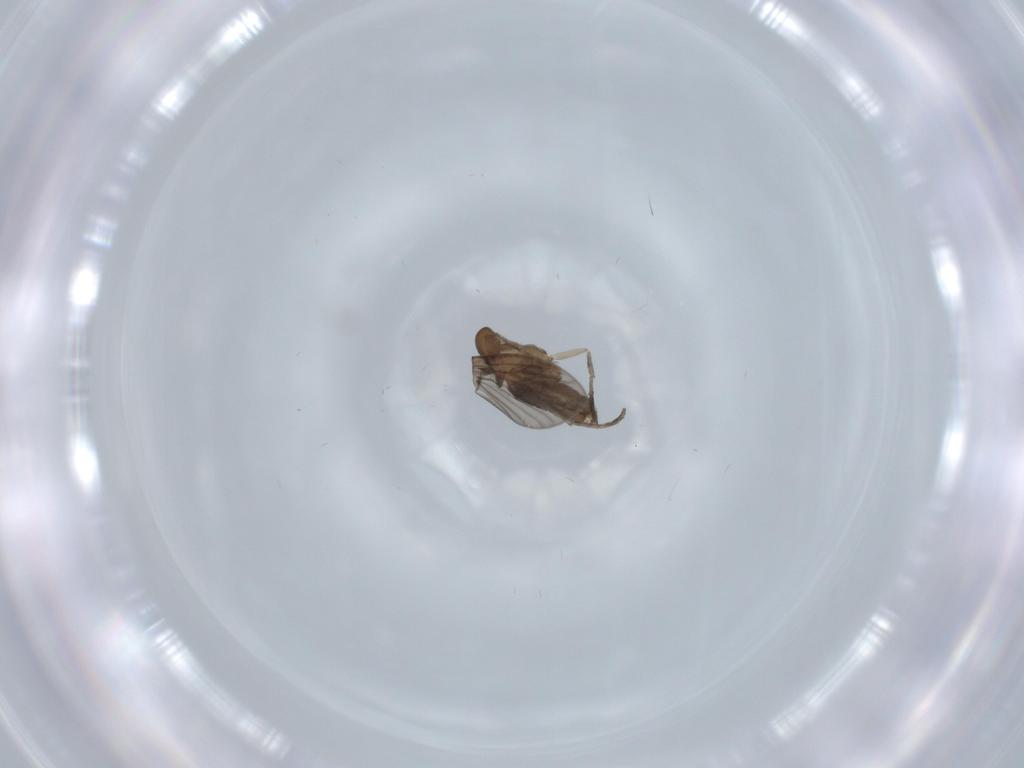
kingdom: Animalia
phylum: Arthropoda
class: Insecta
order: Diptera
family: Psychodidae
